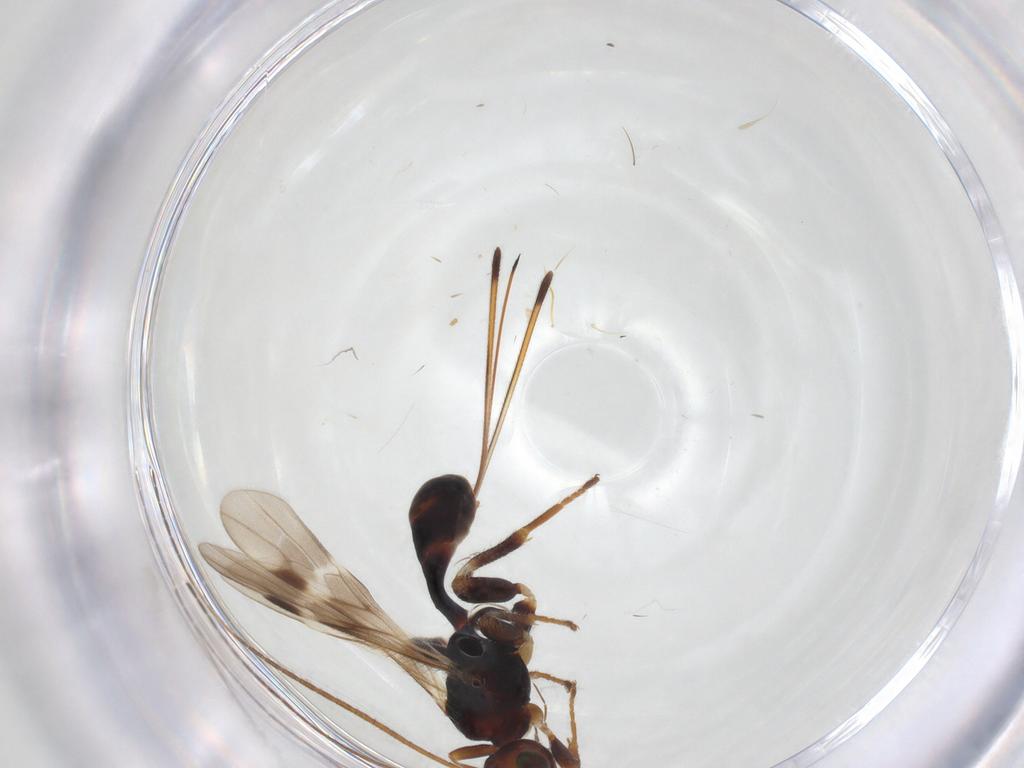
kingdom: Animalia
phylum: Arthropoda
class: Insecta
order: Hymenoptera
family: Braconidae
